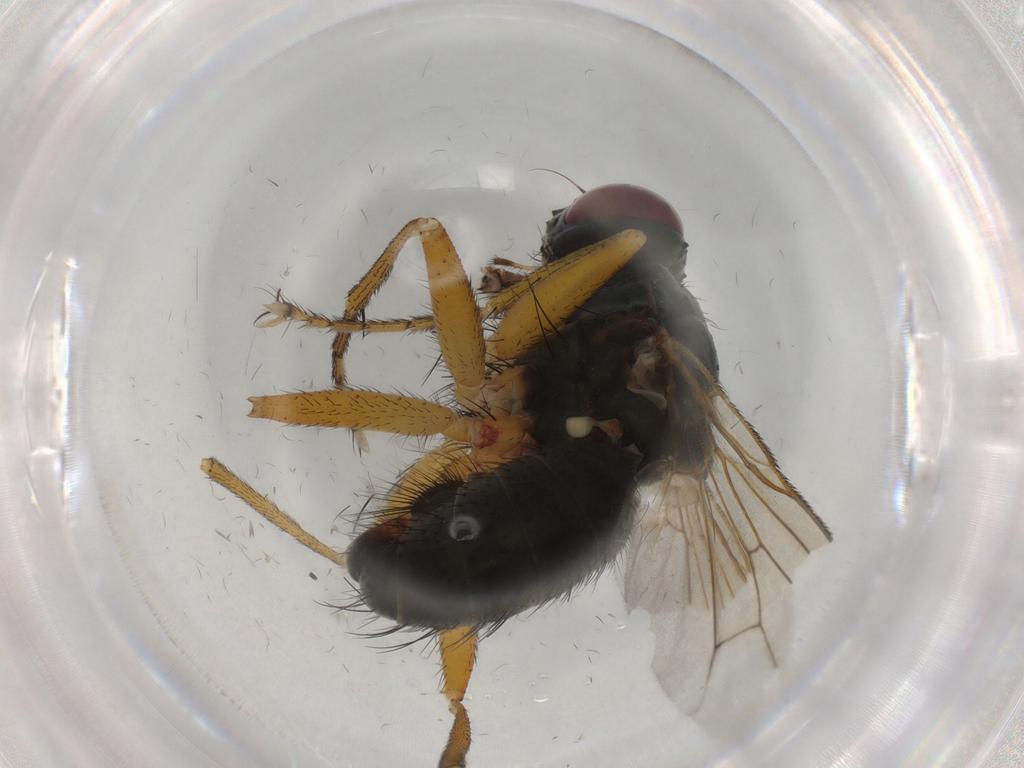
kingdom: Animalia
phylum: Arthropoda
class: Insecta
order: Diptera
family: Muscidae
